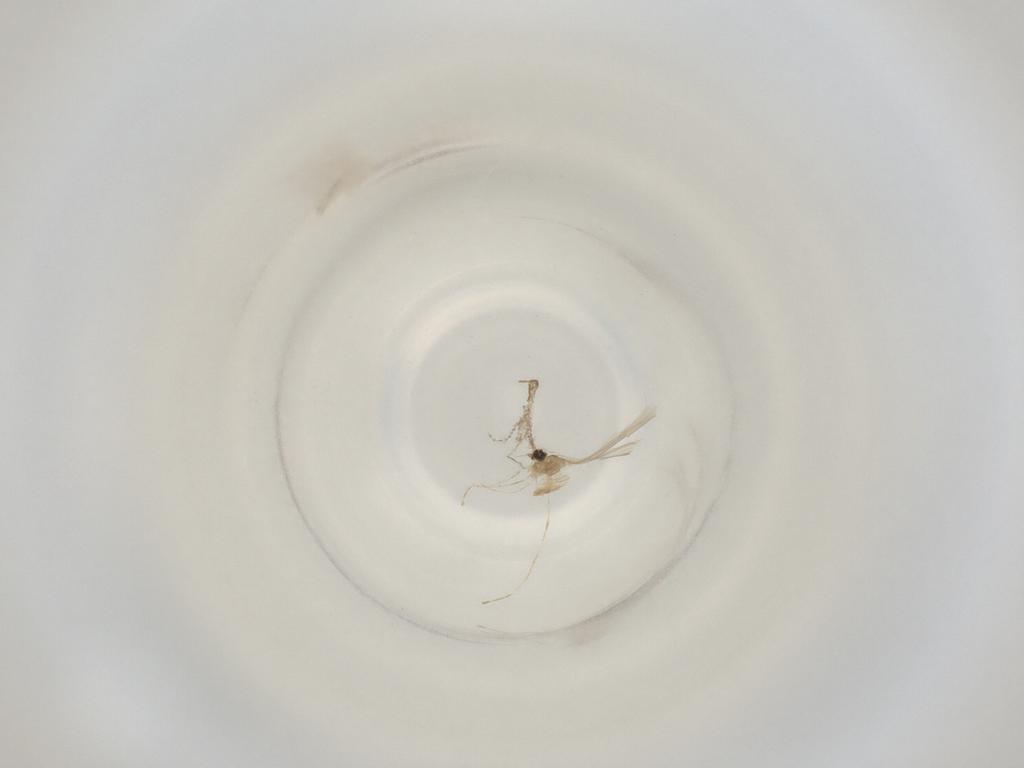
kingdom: Animalia
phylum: Arthropoda
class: Insecta
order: Diptera
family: Cecidomyiidae
